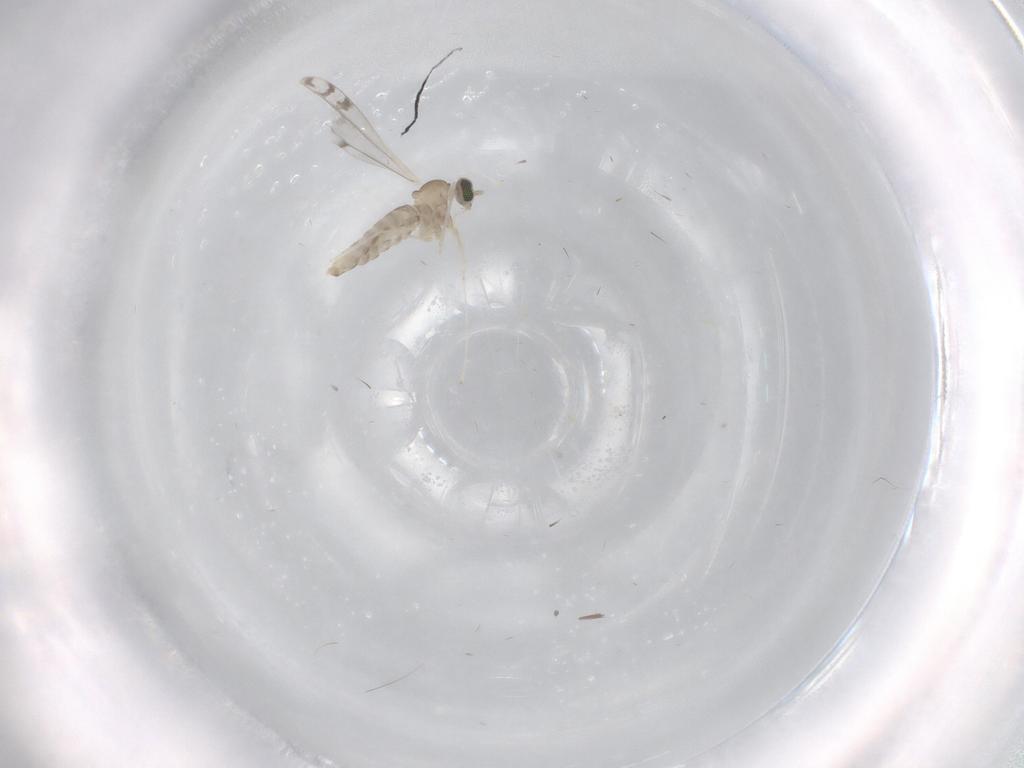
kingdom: Animalia
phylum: Arthropoda
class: Insecta
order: Diptera
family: Cecidomyiidae
